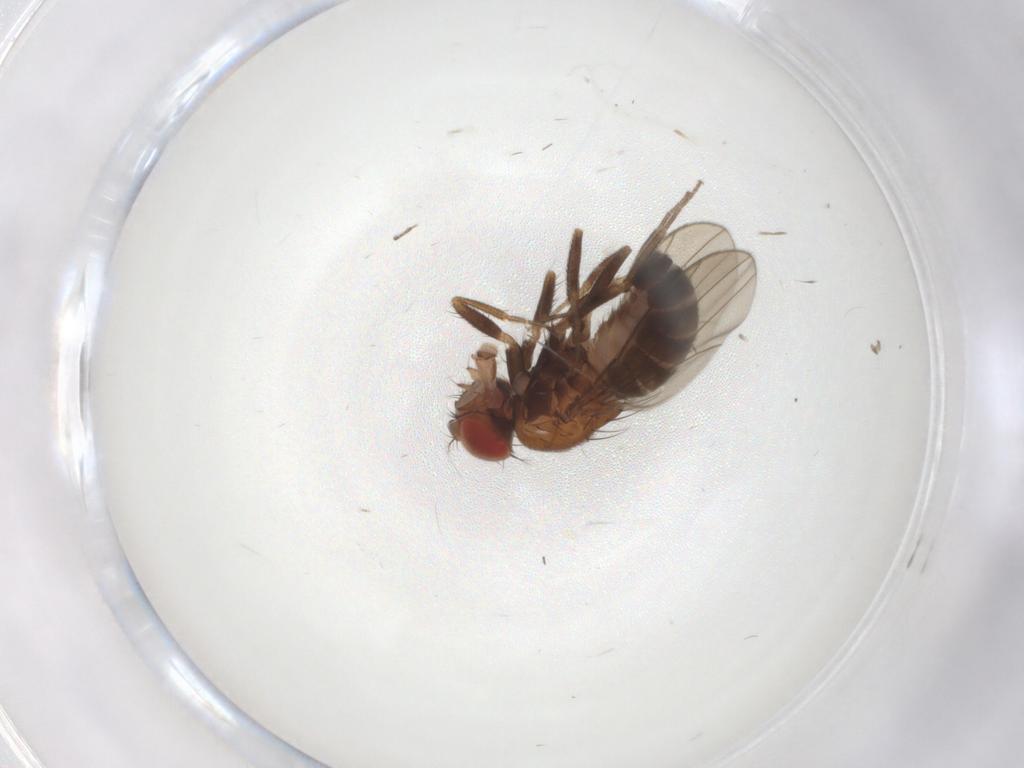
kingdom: Animalia
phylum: Arthropoda
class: Insecta
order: Diptera
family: Drosophilidae
